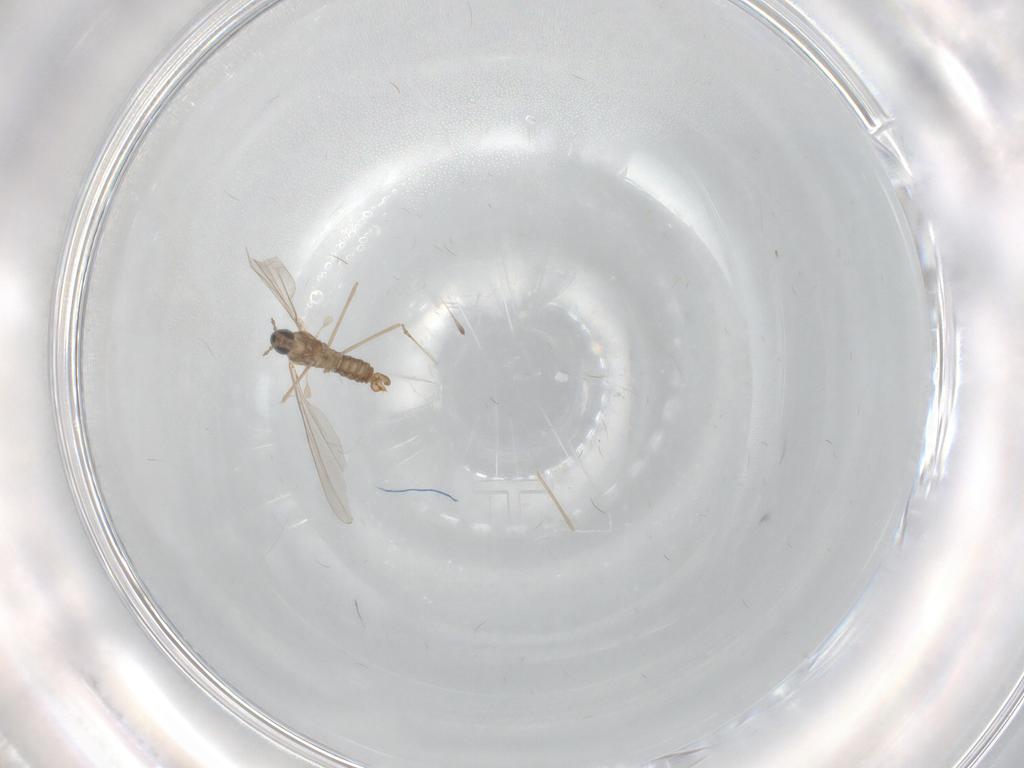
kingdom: Animalia
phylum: Arthropoda
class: Insecta
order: Diptera
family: Cecidomyiidae
